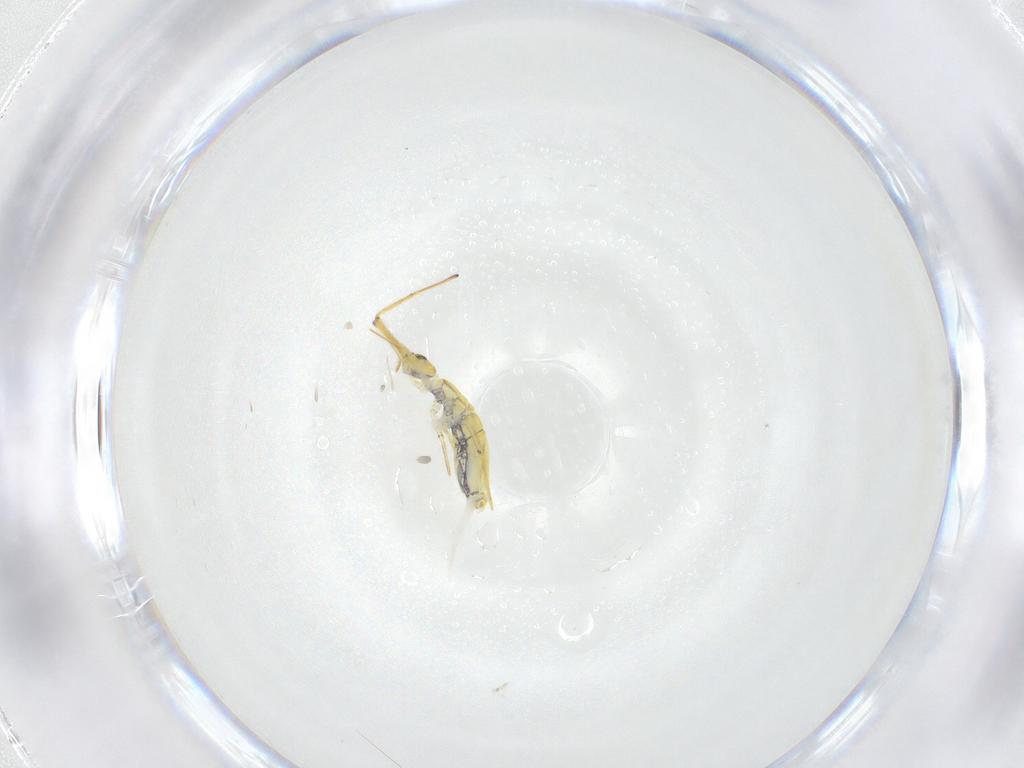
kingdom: Animalia
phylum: Arthropoda
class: Collembola
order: Entomobryomorpha
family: Paronellidae
